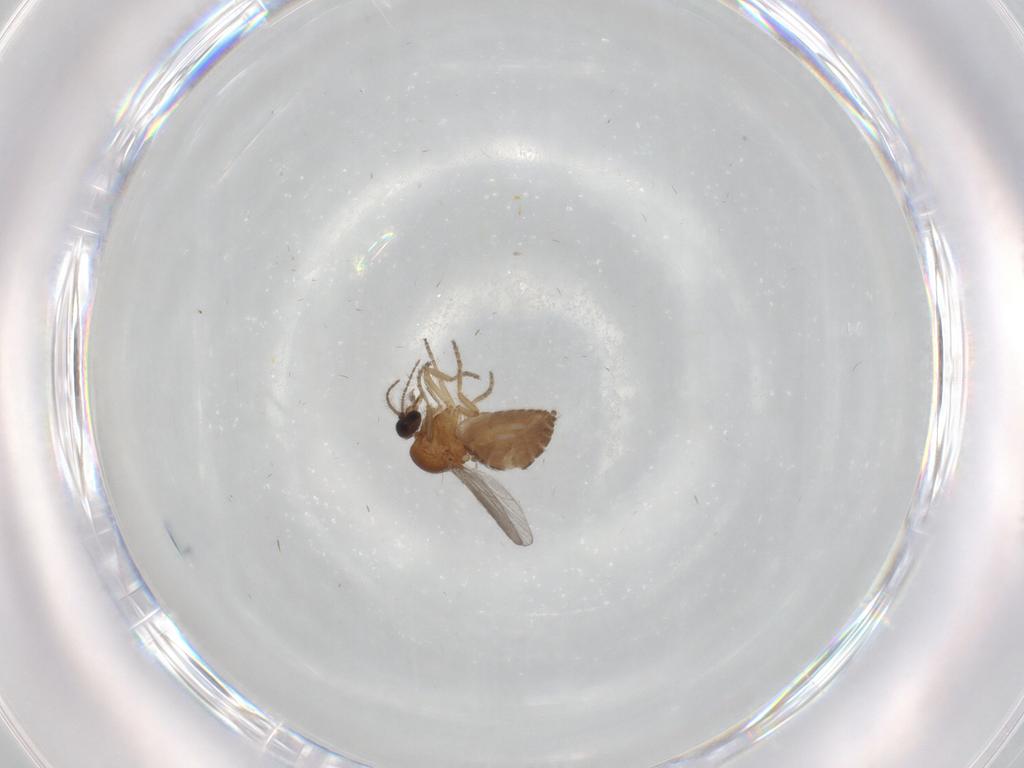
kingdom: Animalia
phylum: Arthropoda
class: Insecta
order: Diptera
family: Ceratopogonidae
